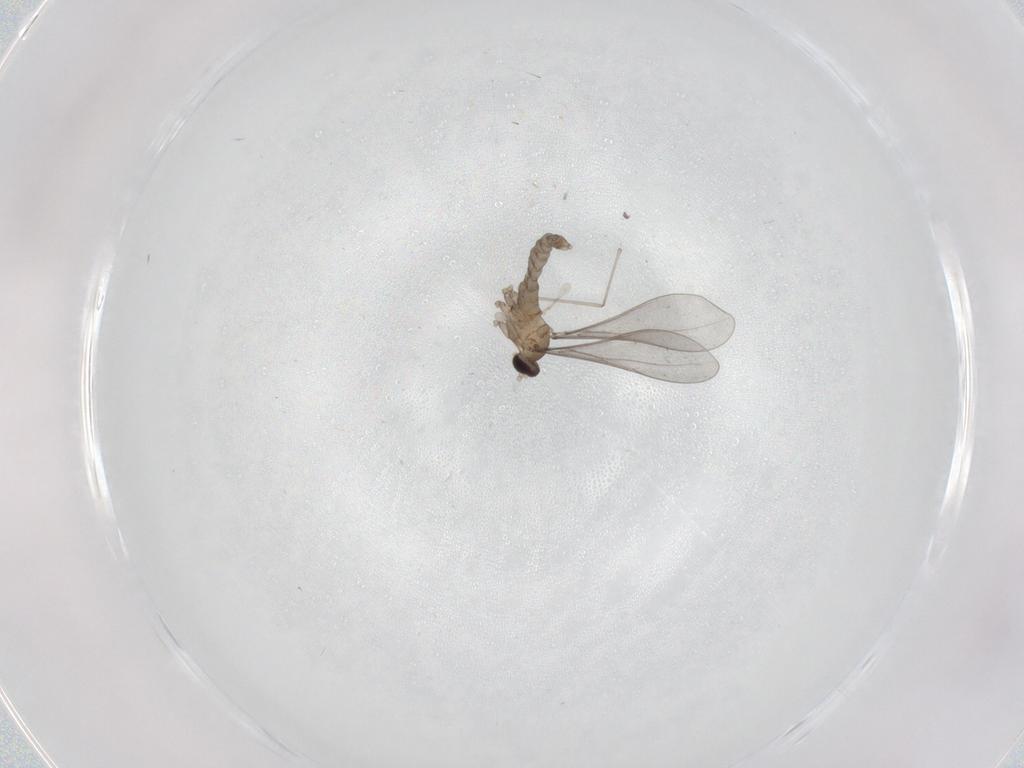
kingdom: Animalia
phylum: Arthropoda
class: Insecta
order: Diptera
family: Cecidomyiidae
